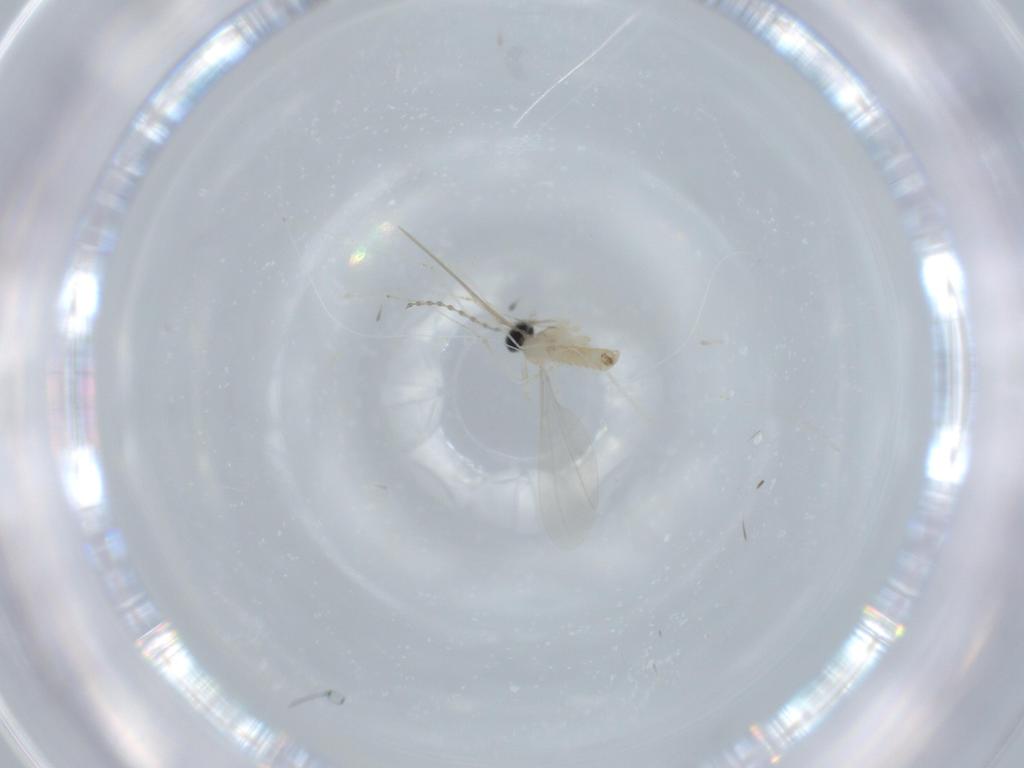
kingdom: Animalia
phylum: Arthropoda
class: Insecta
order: Diptera
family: Cecidomyiidae
